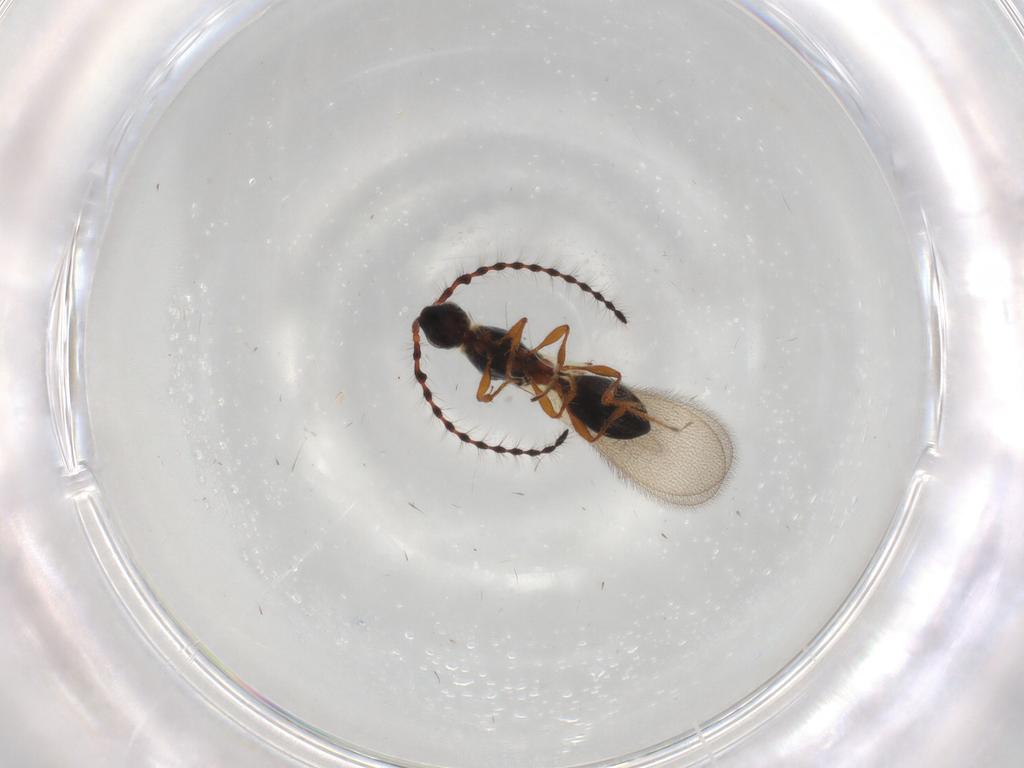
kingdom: Animalia
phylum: Arthropoda
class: Insecta
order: Hymenoptera
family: Diapriidae
